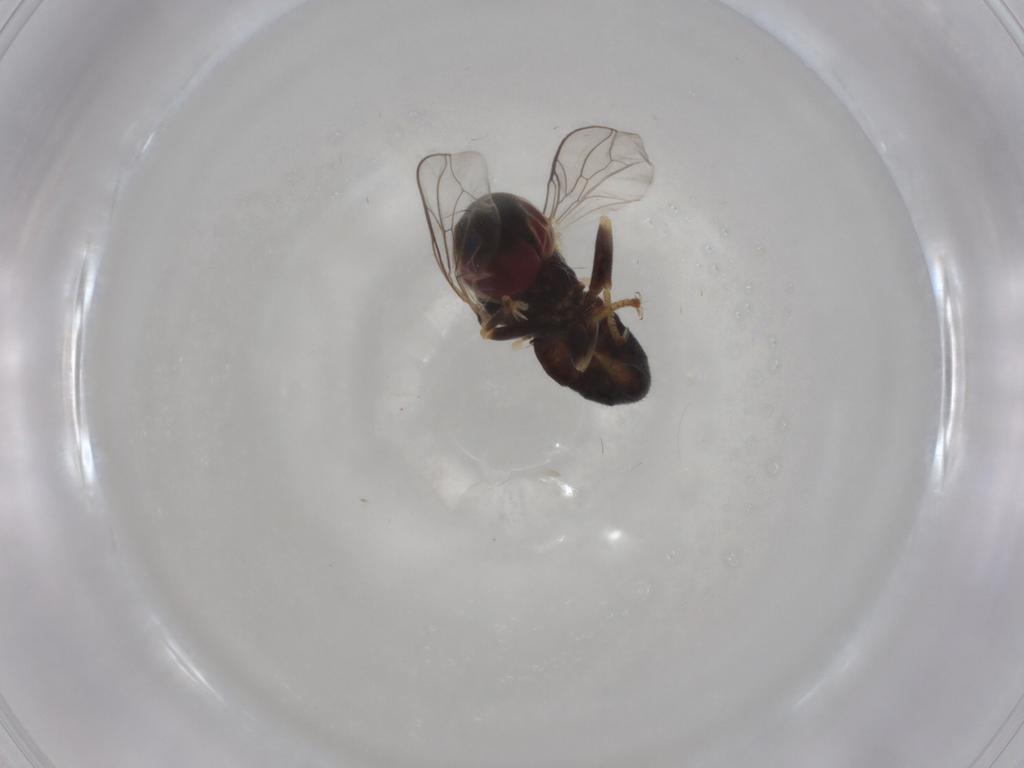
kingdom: Animalia
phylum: Arthropoda
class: Insecta
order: Diptera
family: Pipunculidae
